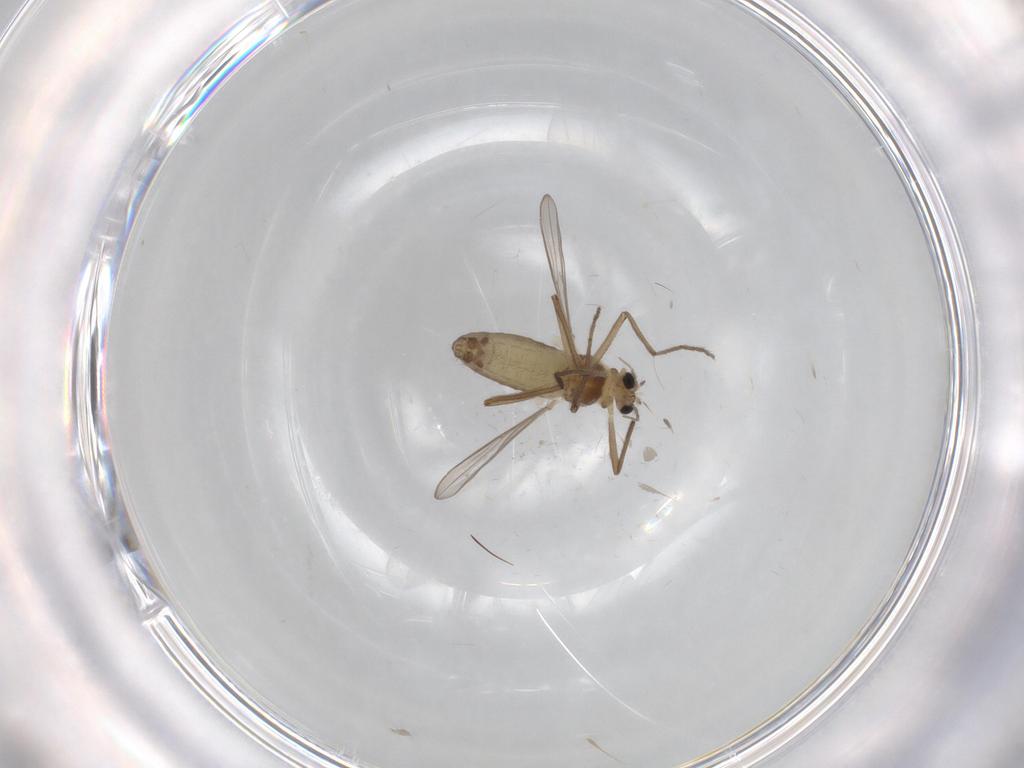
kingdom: Animalia
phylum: Arthropoda
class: Insecta
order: Diptera
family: Chironomidae
